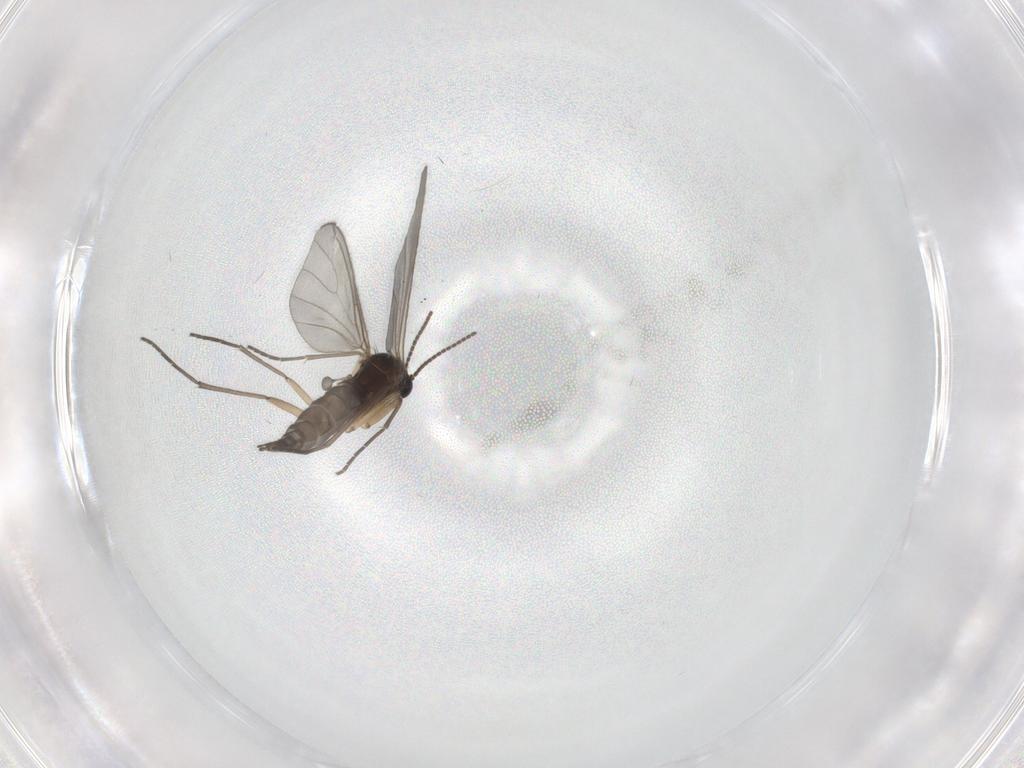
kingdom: Animalia
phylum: Arthropoda
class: Insecta
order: Diptera
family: Sciaridae
